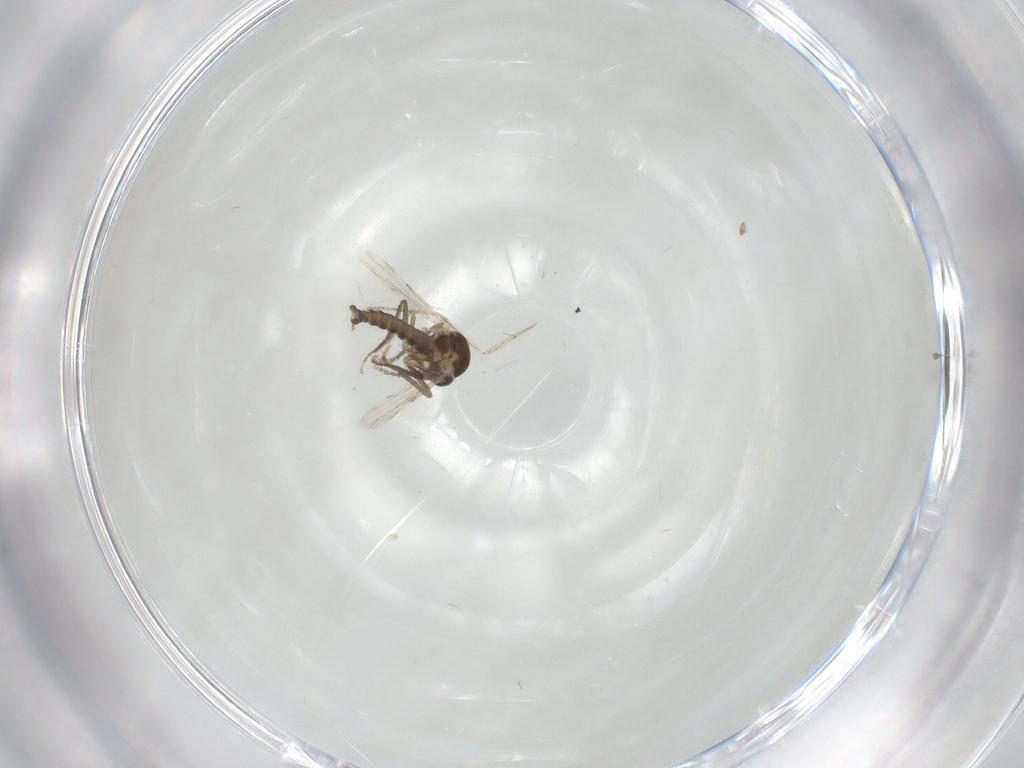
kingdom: Animalia
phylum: Arthropoda
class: Insecta
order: Diptera
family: Ceratopogonidae
